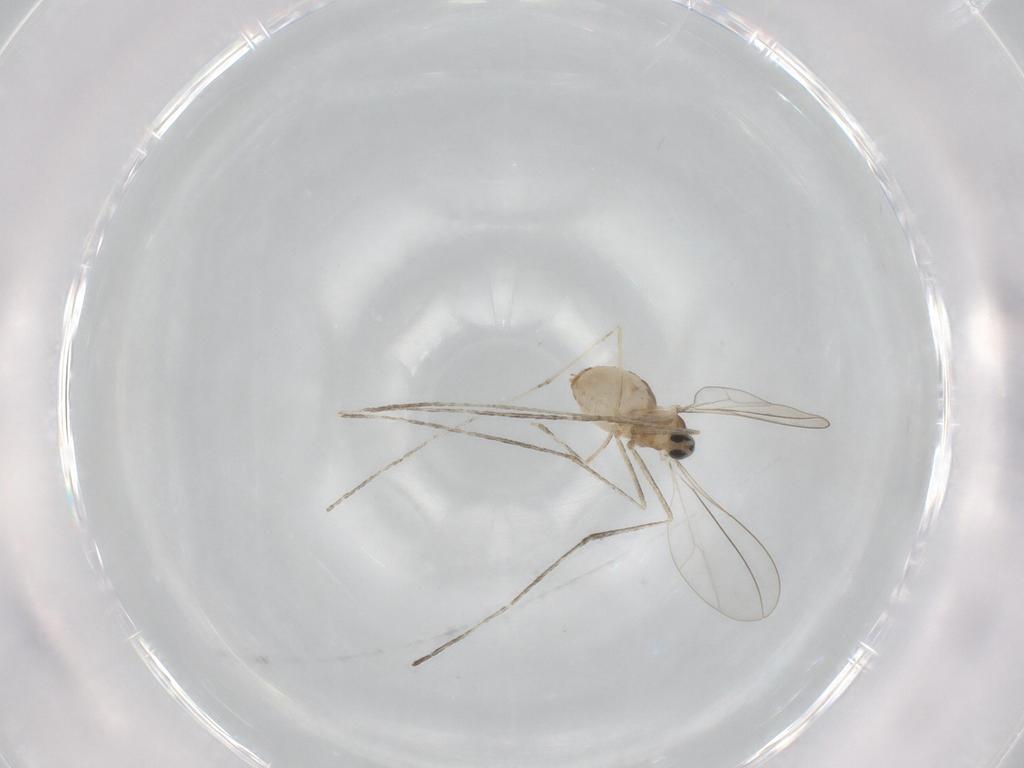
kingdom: Animalia
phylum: Arthropoda
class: Insecta
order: Diptera
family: Cecidomyiidae
